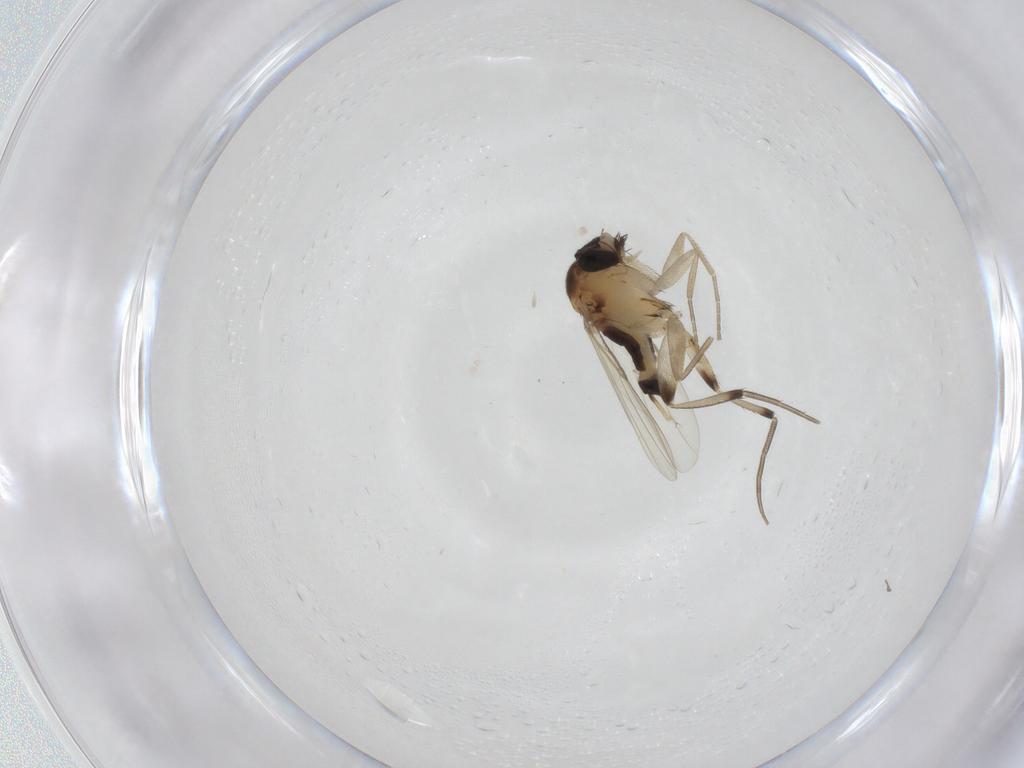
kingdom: Animalia
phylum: Arthropoda
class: Insecta
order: Diptera
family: Phoridae
